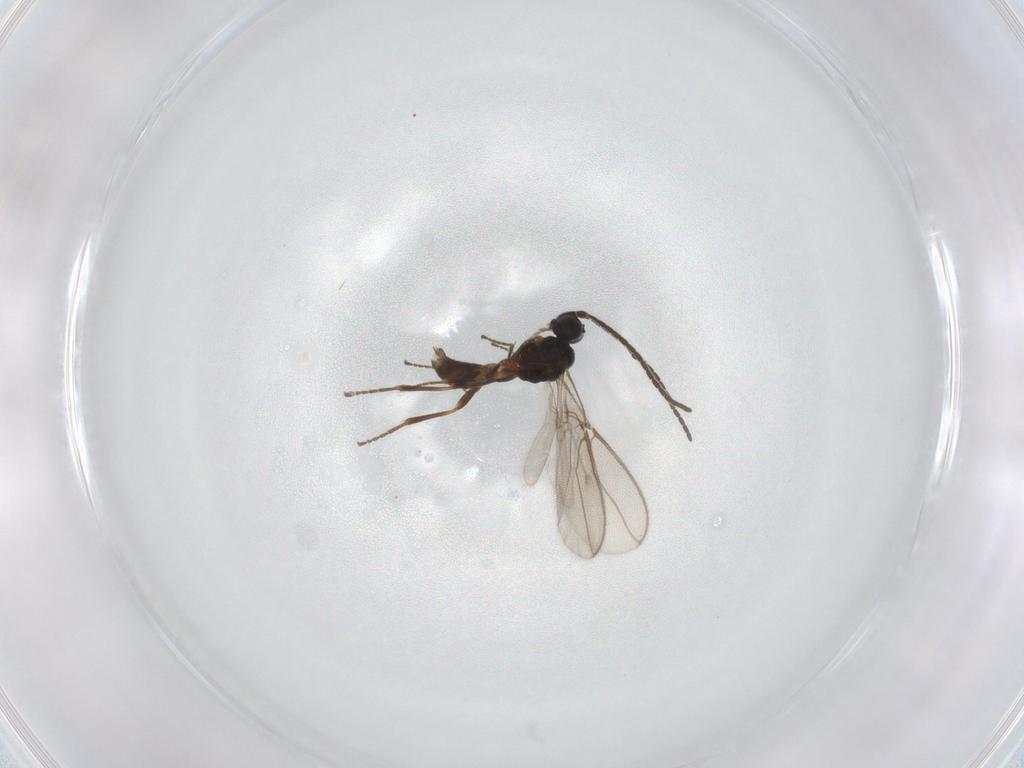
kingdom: Animalia
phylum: Arthropoda
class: Insecta
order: Hymenoptera
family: Braconidae
